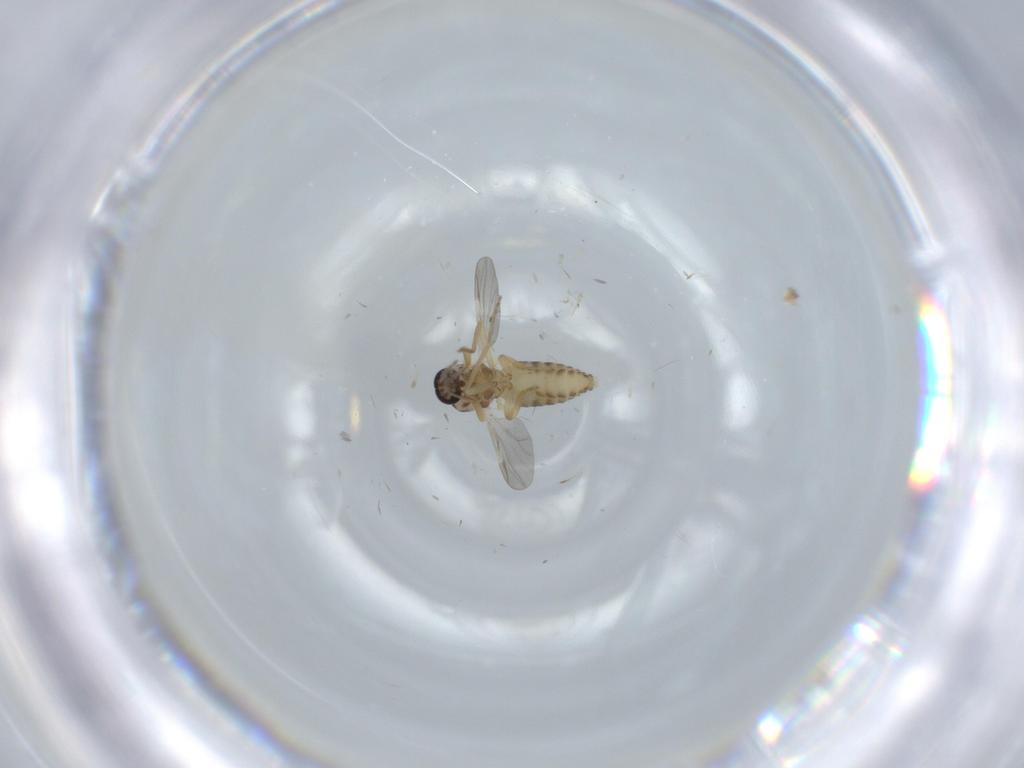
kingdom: Animalia
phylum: Arthropoda
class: Insecta
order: Diptera
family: Ceratopogonidae
